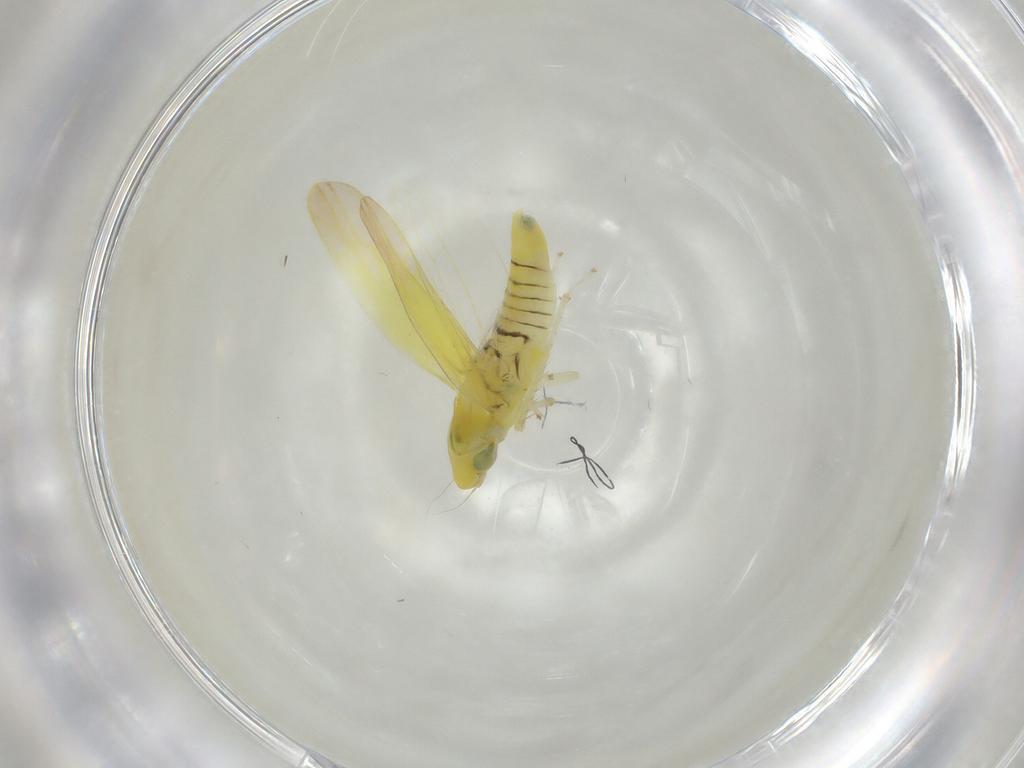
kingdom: Animalia
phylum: Arthropoda
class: Insecta
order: Hemiptera
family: Cicadellidae
